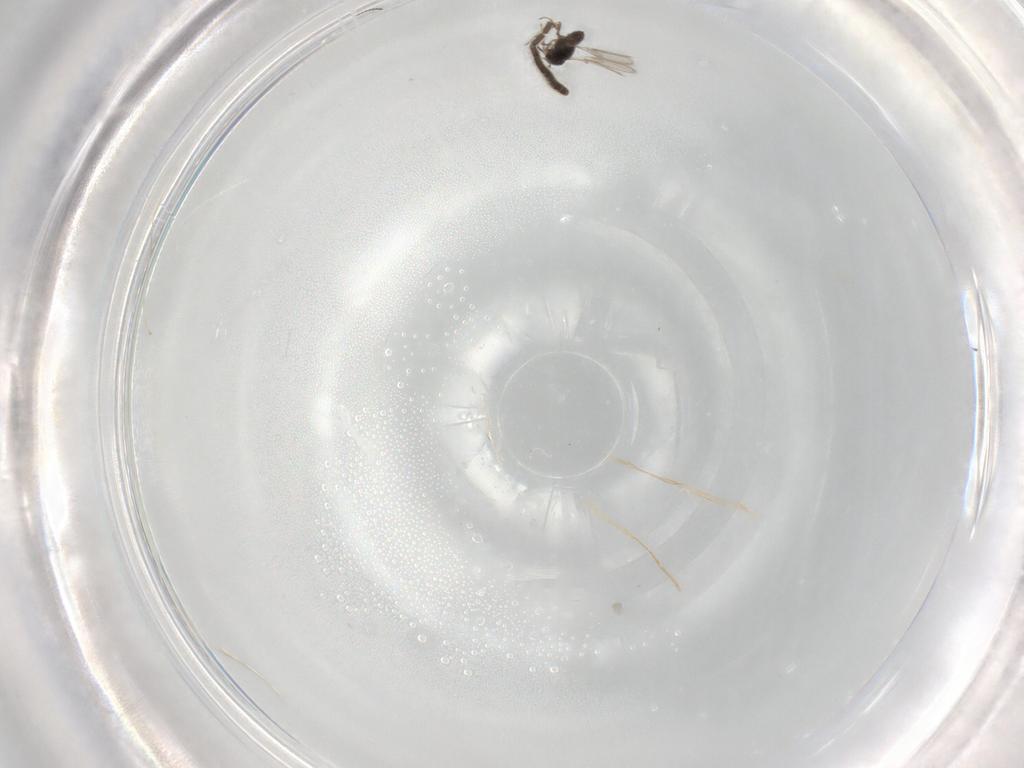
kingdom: Animalia
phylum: Arthropoda
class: Insecta
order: Hymenoptera
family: Scelionidae
